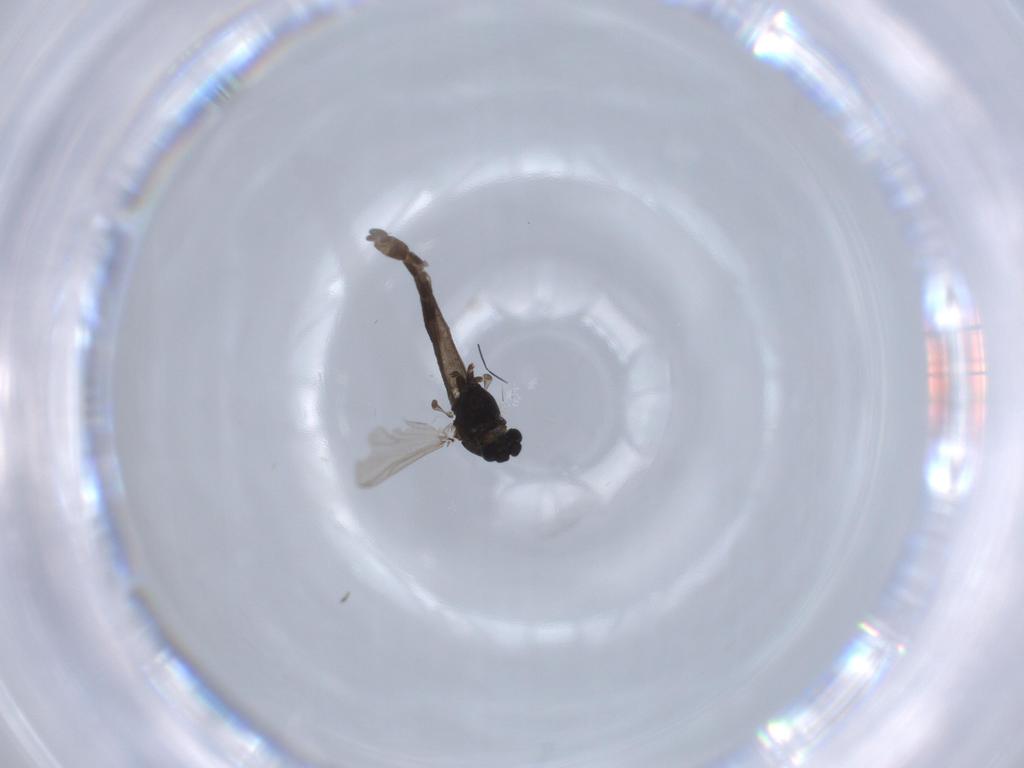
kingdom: Animalia
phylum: Arthropoda
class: Insecta
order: Diptera
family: Chironomidae
